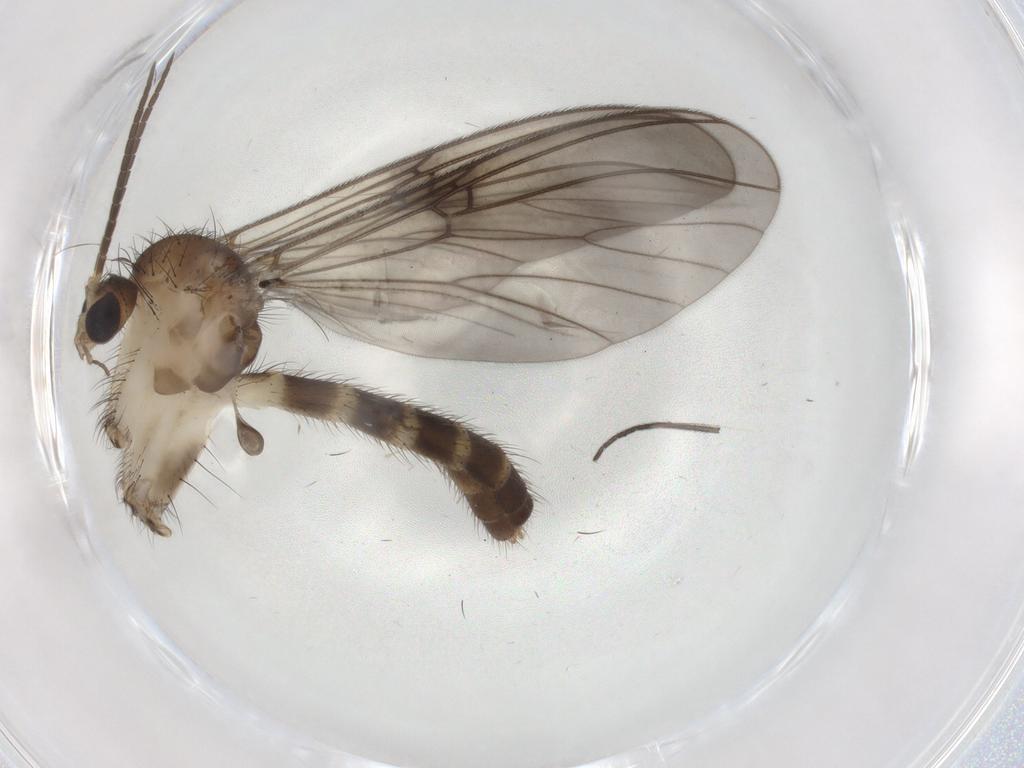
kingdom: Animalia
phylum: Arthropoda
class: Insecta
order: Diptera
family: Mycetophilidae
